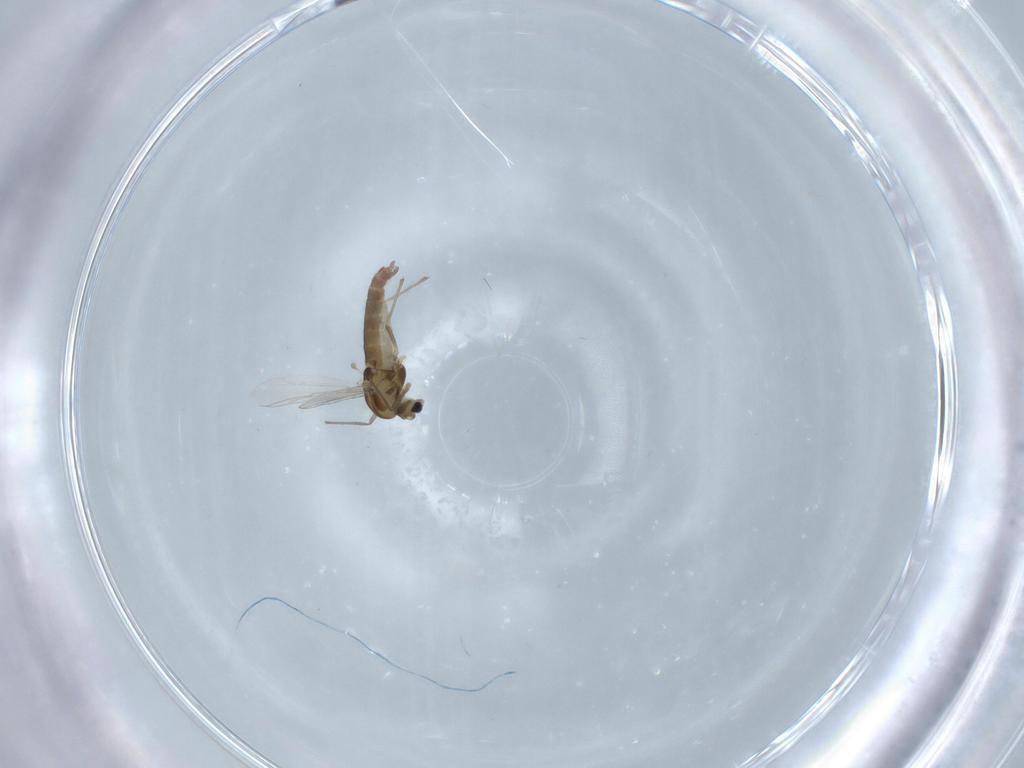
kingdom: Animalia
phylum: Arthropoda
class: Insecta
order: Diptera
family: Chironomidae
